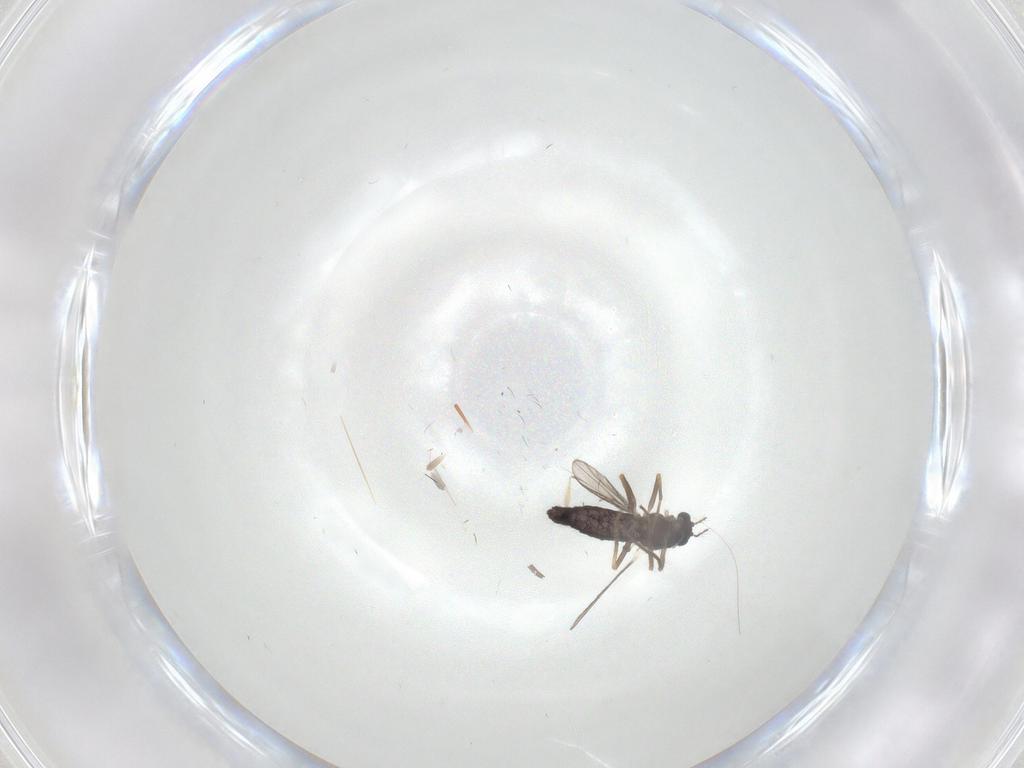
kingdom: Animalia
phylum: Arthropoda
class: Insecta
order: Diptera
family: Chironomidae
